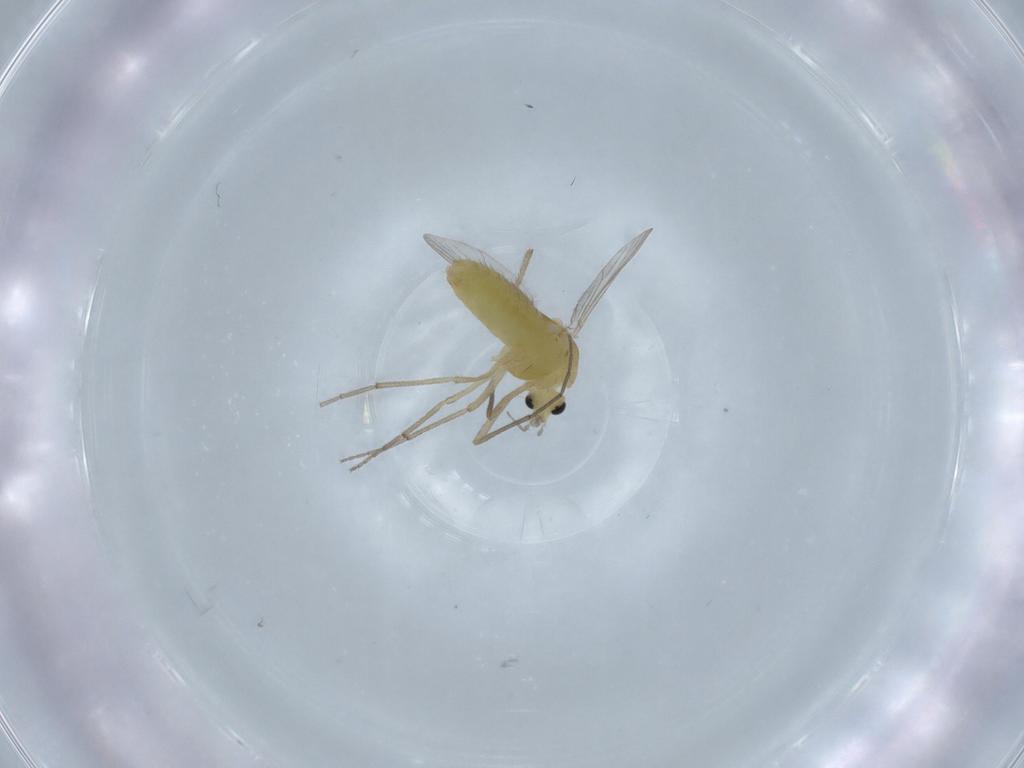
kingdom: Animalia
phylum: Arthropoda
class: Insecta
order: Diptera
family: Psychodidae
